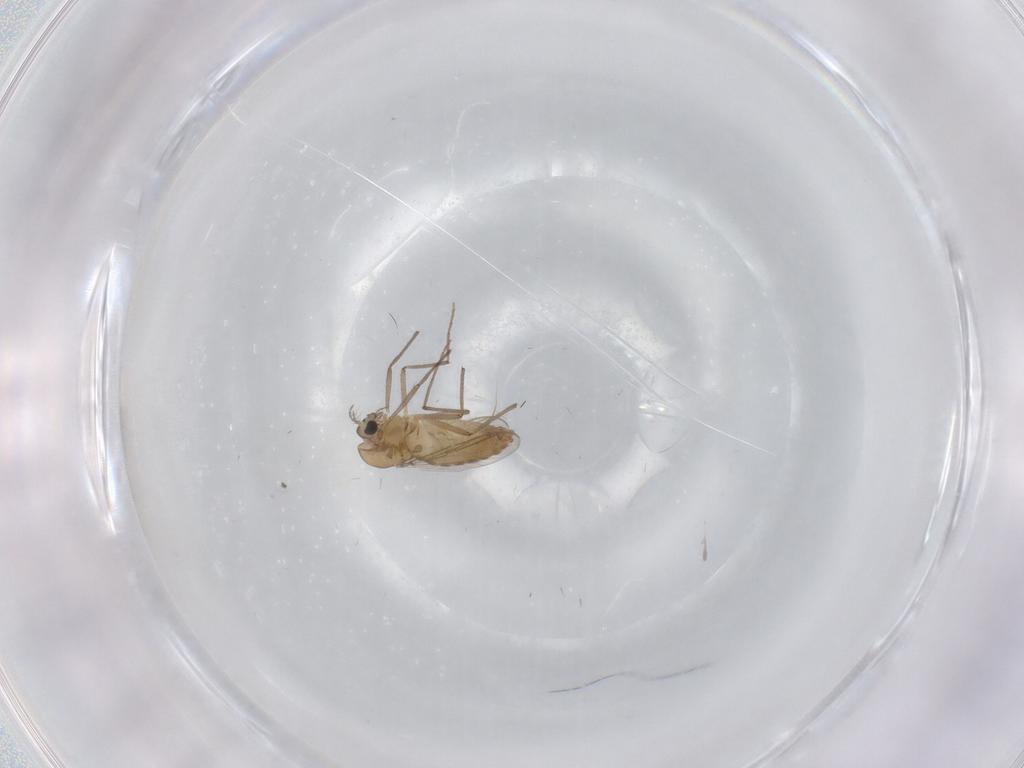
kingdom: Animalia
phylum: Arthropoda
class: Insecta
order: Diptera
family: Chironomidae
